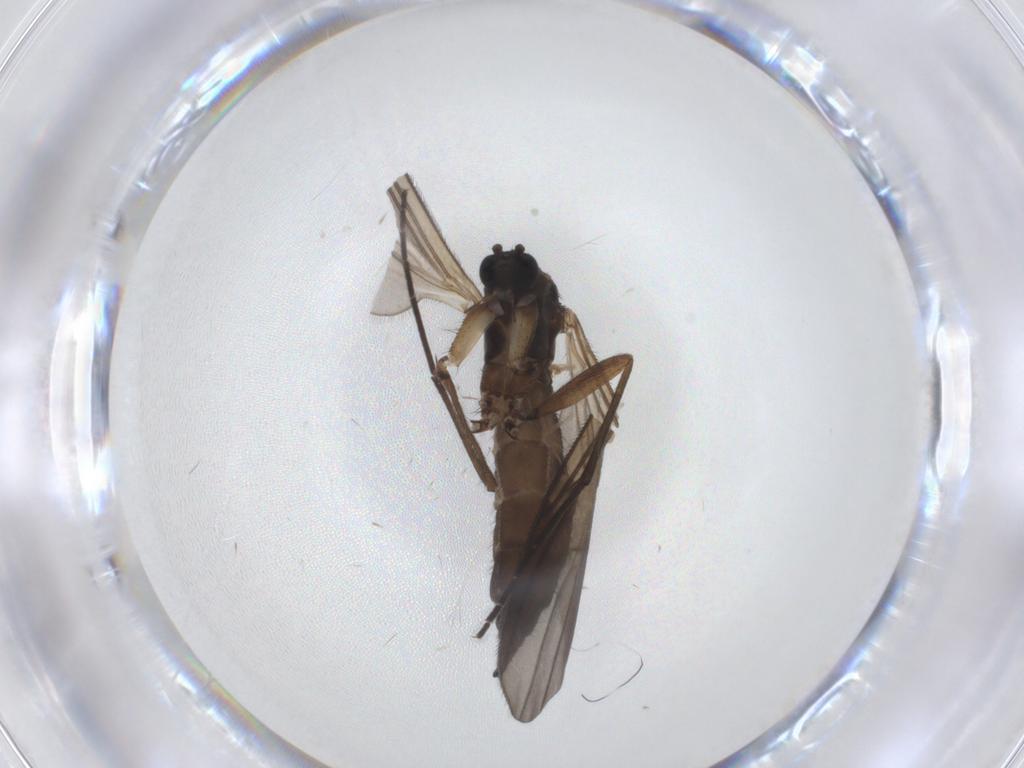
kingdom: Animalia
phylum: Arthropoda
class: Insecta
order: Diptera
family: Sciaridae
